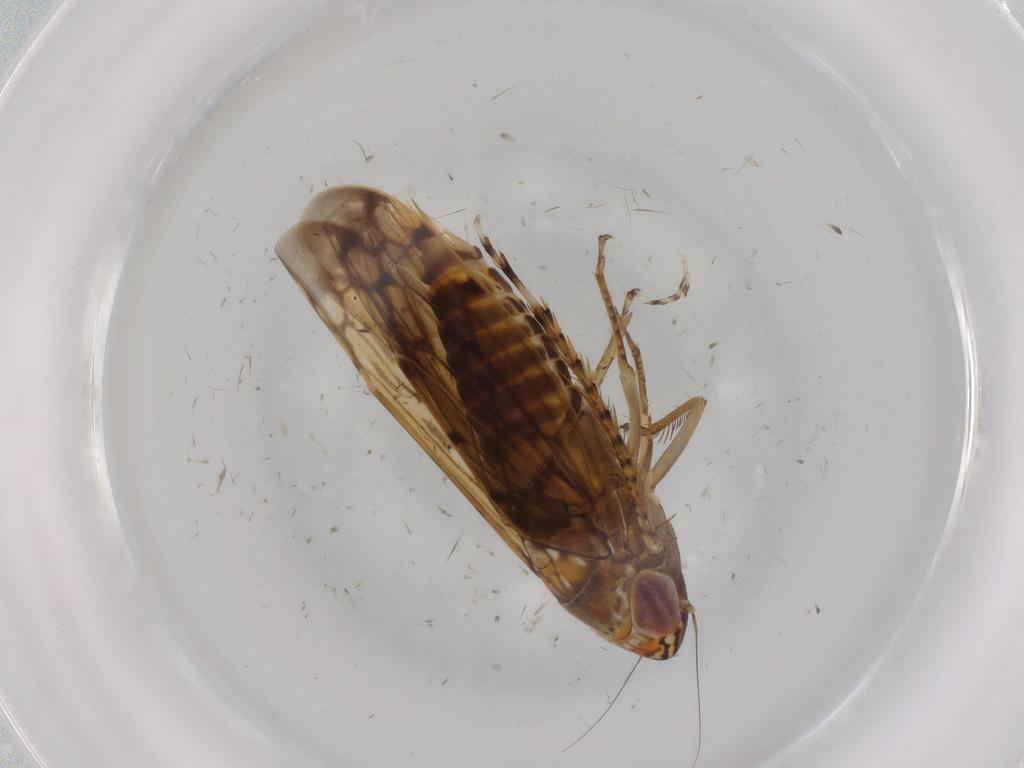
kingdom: Animalia
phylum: Arthropoda
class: Insecta
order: Hemiptera
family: Cicadellidae
